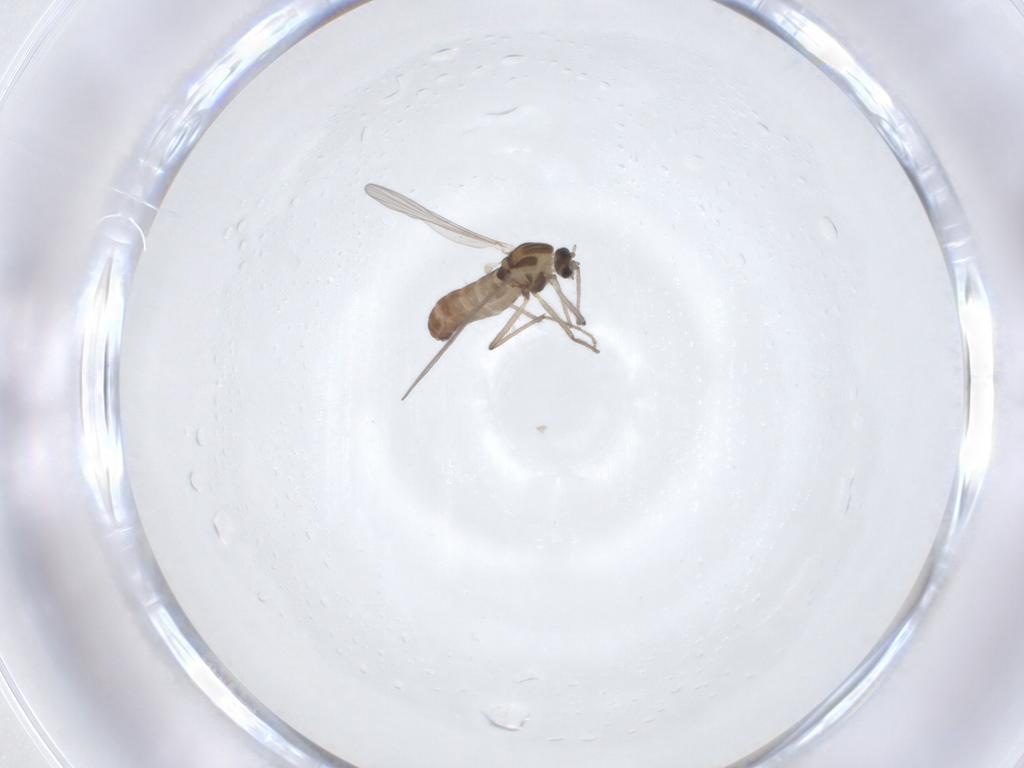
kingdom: Animalia
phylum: Arthropoda
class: Insecta
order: Diptera
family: Chironomidae
